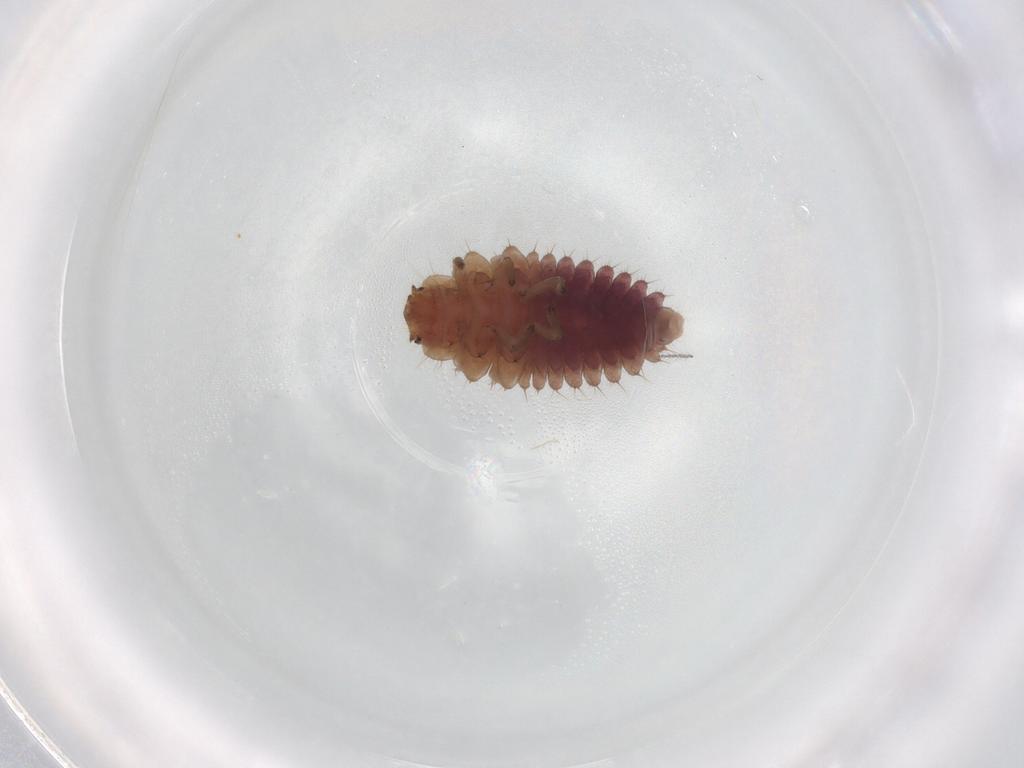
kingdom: Animalia
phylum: Arthropoda
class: Insecta
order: Coleoptera
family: Coccinellidae
